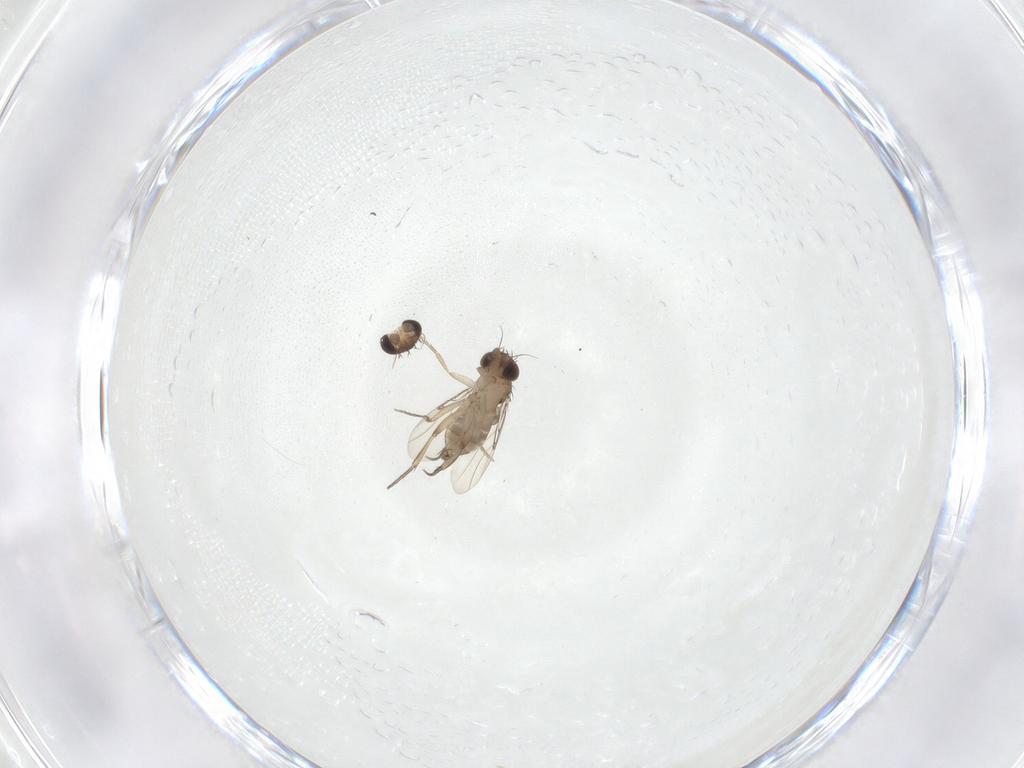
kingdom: Animalia
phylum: Arthropoda
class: Insecta
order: Diptera
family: Phoridae
